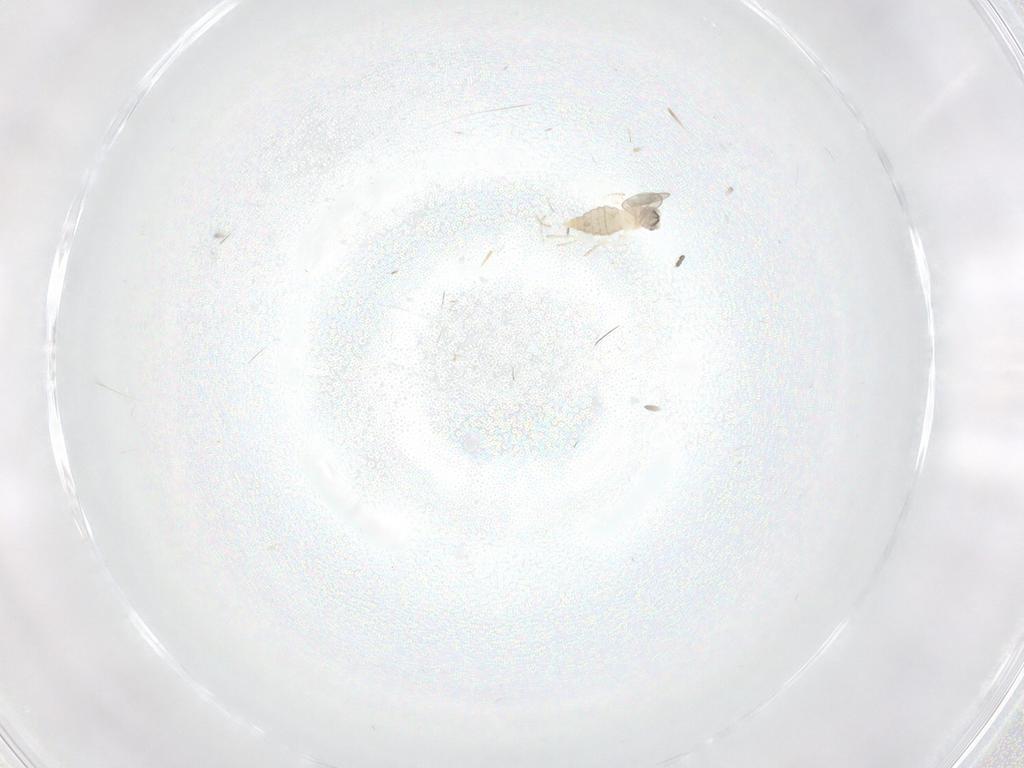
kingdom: Animalia
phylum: Arthropoda
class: Insecta
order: Diptera
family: Cecidomyiidae
